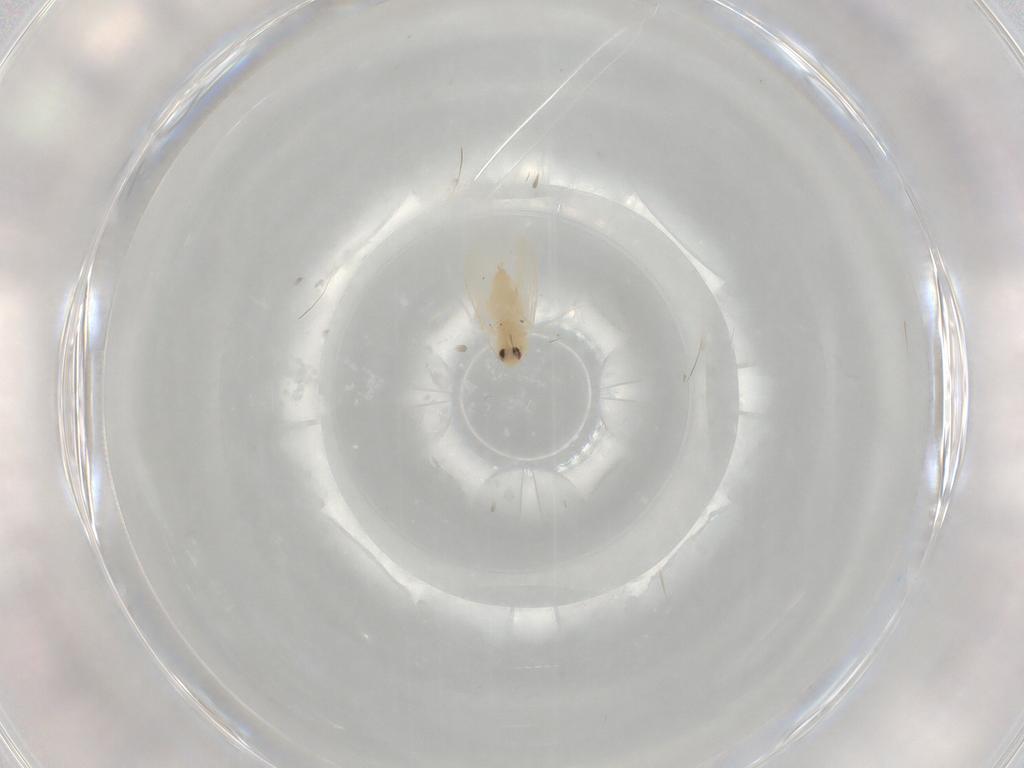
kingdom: Animalia
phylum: Arthropoda
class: Insecta
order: Hemiptera
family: Aleyrodidae
